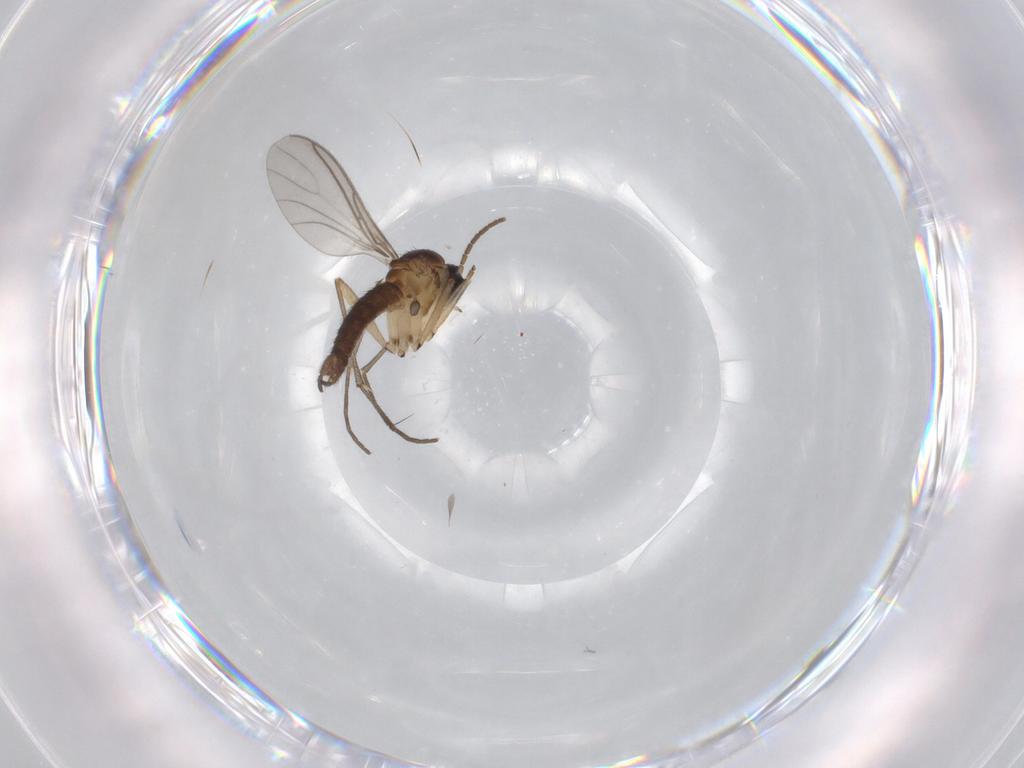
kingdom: Animalia
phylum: Arthropoda
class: Insecta
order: Diptera
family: Sciaridae
